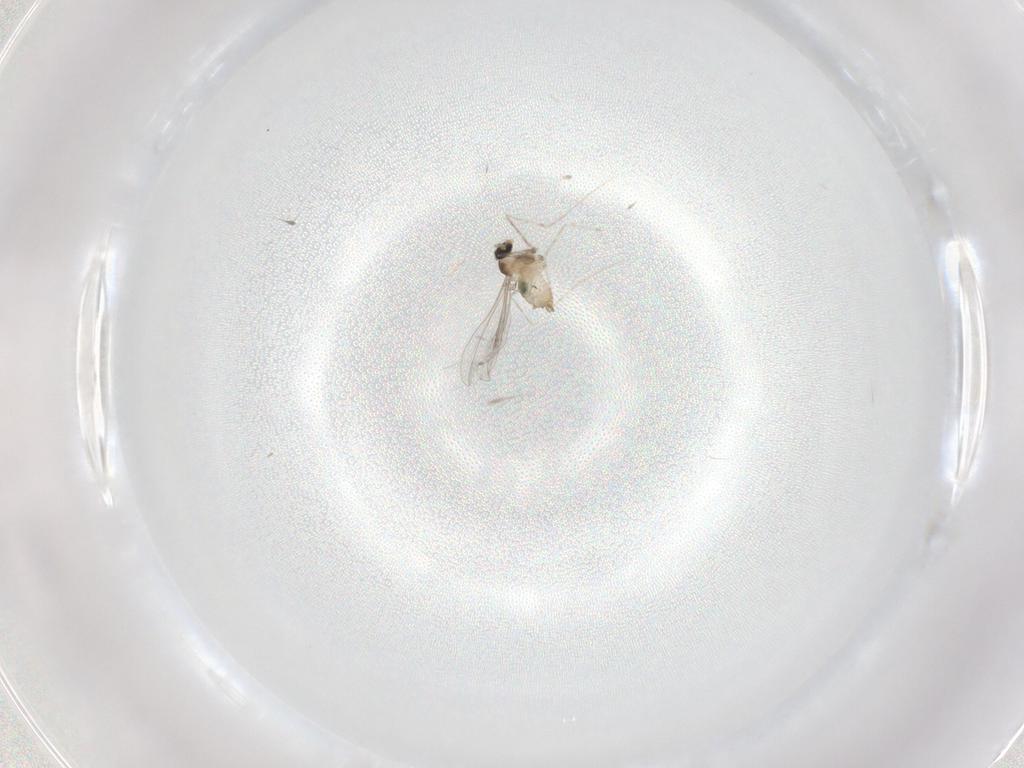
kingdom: Animalia
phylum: Arthropoda
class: Insecta
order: Diptera
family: Cecidomyiidae
